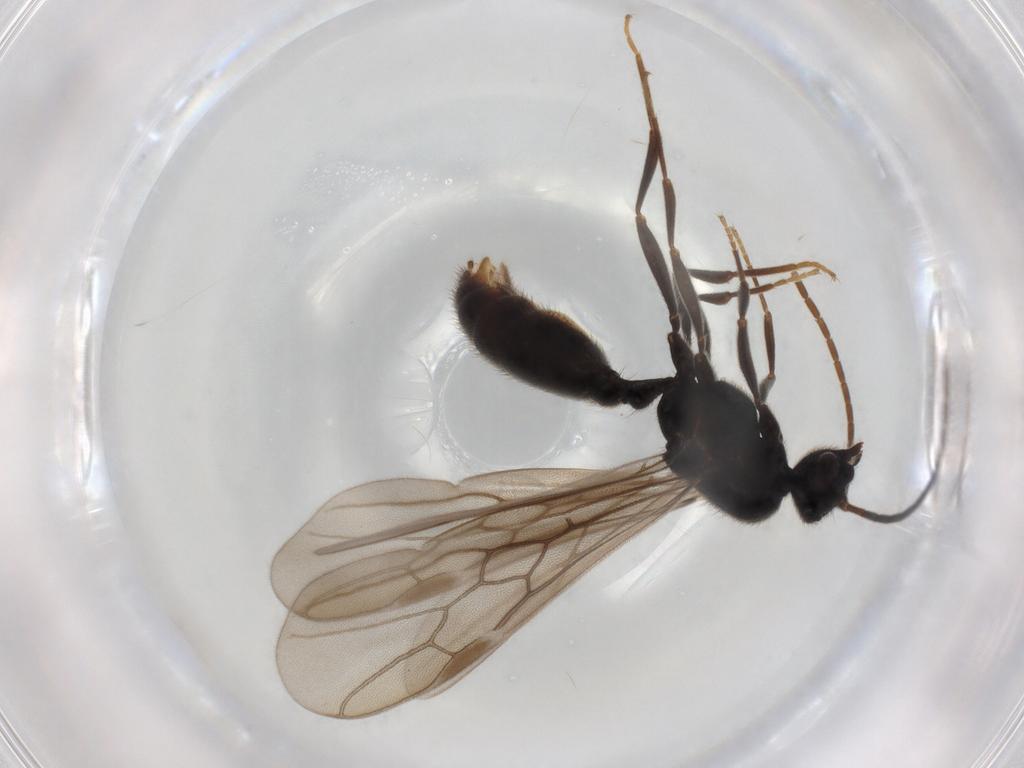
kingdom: Animalia
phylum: Arthropoda
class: Insecta
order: Hymenoptera
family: Formicidae
